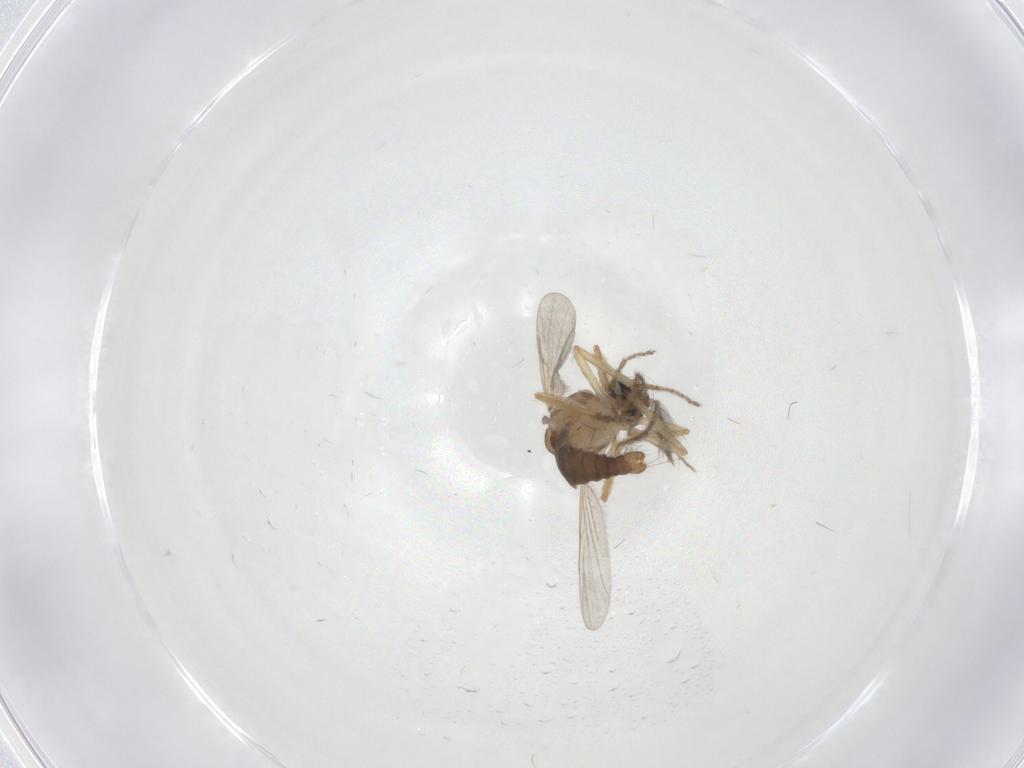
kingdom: Animalia
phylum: Arthropoda
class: Insecta
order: Diptera
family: Ceratopogonidae
